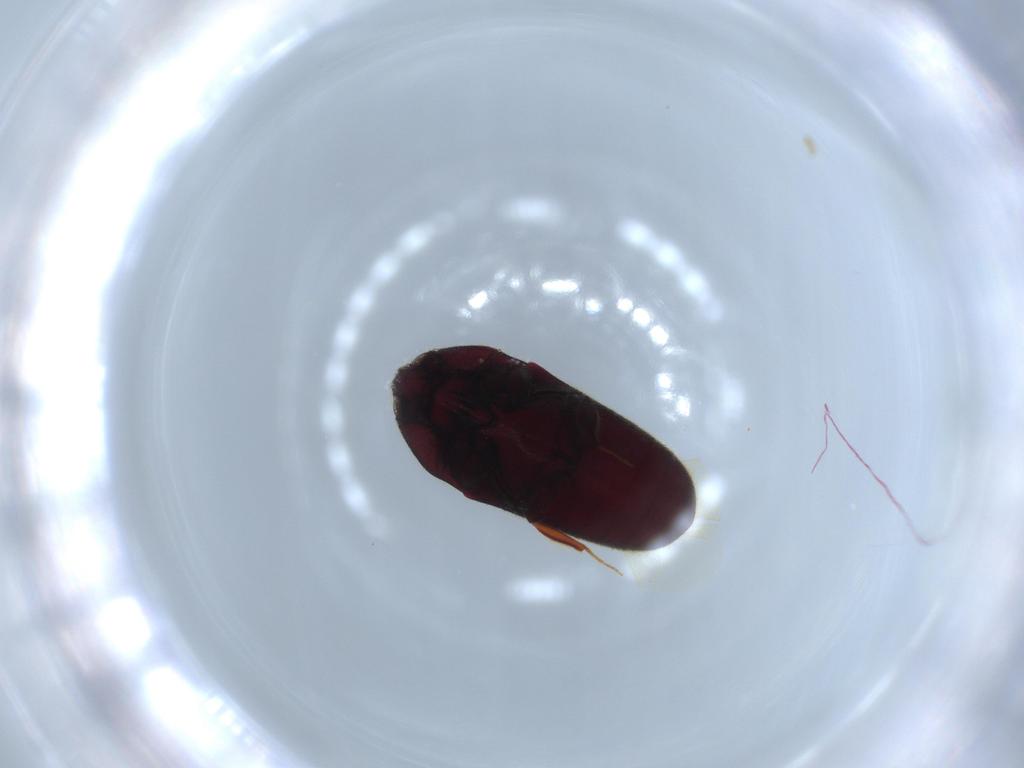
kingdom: Animalia
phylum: Arthropoda
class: Insecta
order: Coleoptera
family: Throscidae
